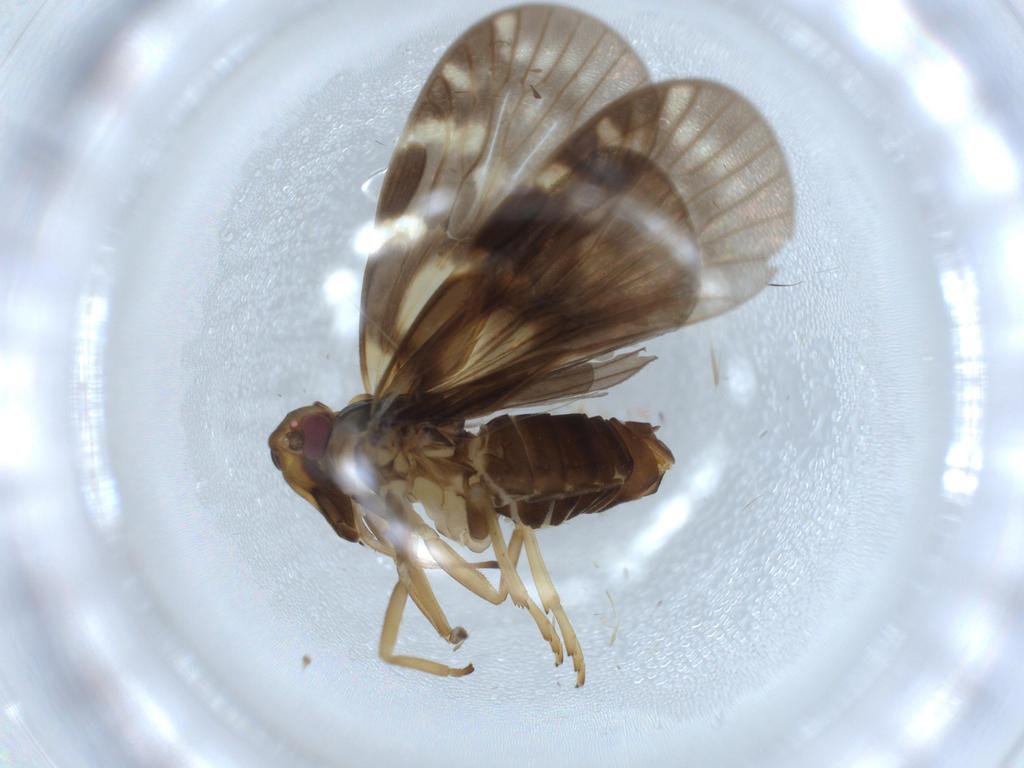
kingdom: Animalia
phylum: Arthropoda
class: Insecta
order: Hemiptera
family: Cixiidae
